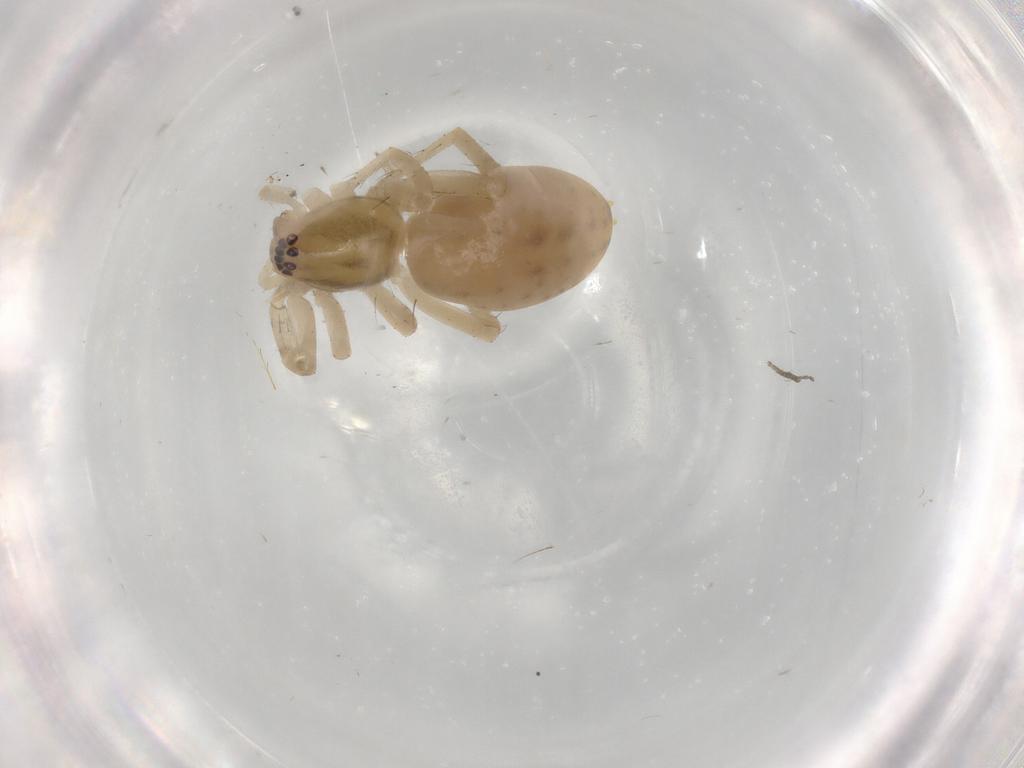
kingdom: Animalia
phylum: Arthropoda
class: Arachnida
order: Araneae
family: Anyphaenidae
